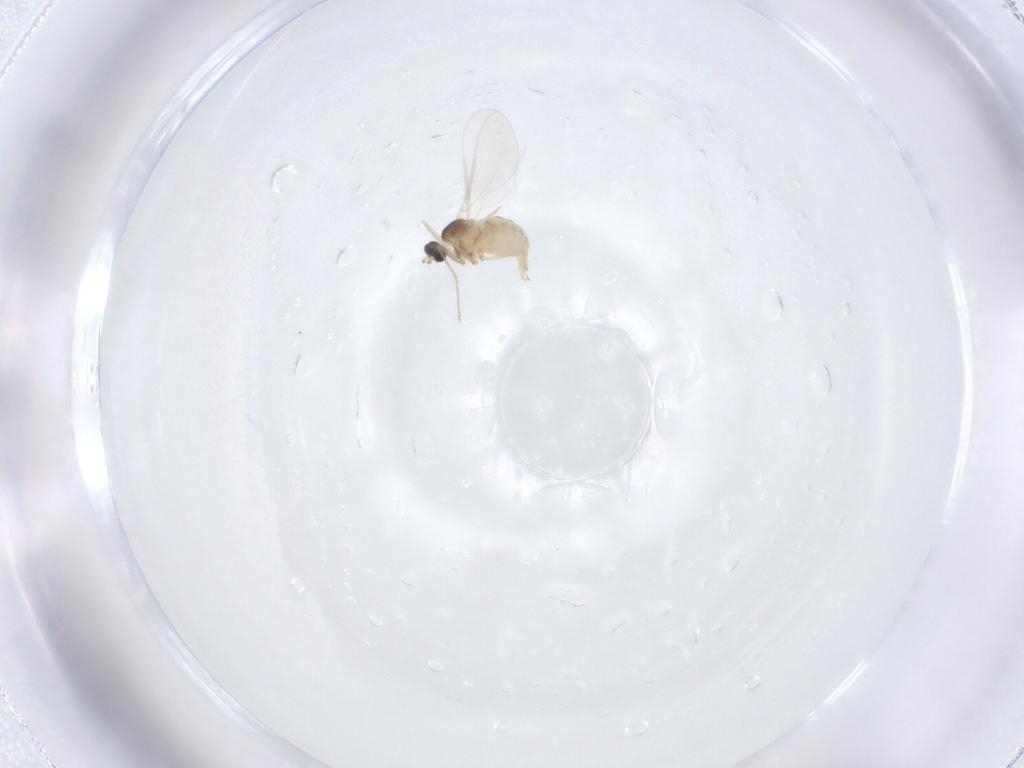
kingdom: Animalia
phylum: Arthropoda
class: Insecta
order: Diptera
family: Cecidomyiidae
